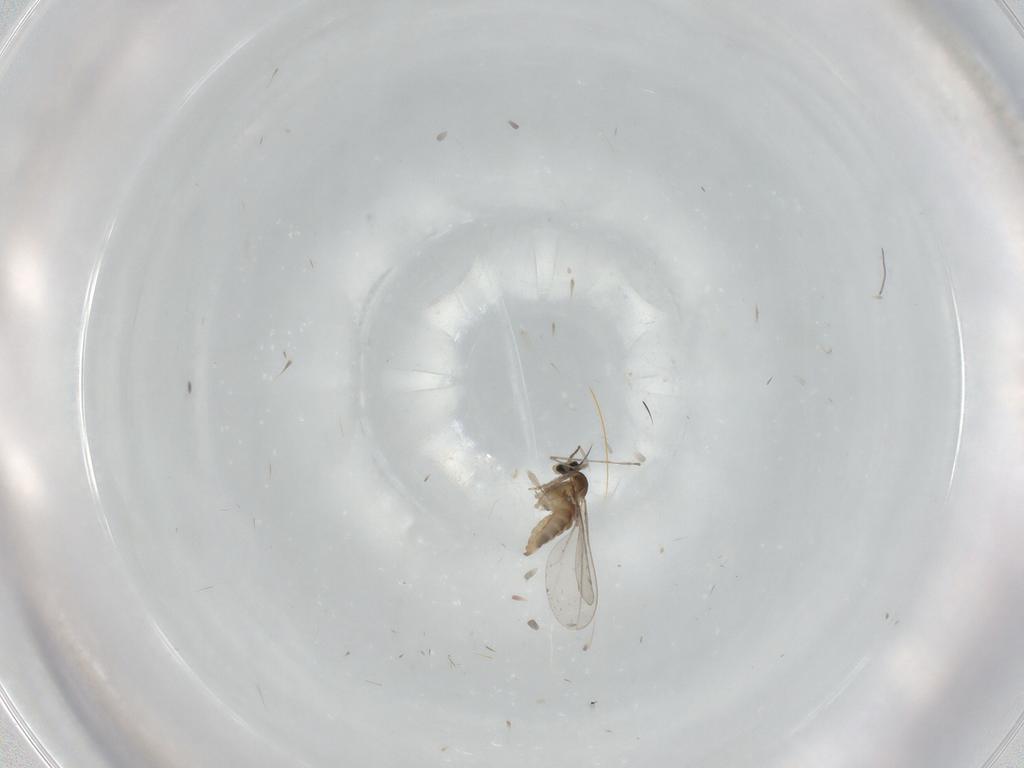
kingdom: Animalia
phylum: Arthropoda
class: Insecta
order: Diptera
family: Cecidomyiidae
